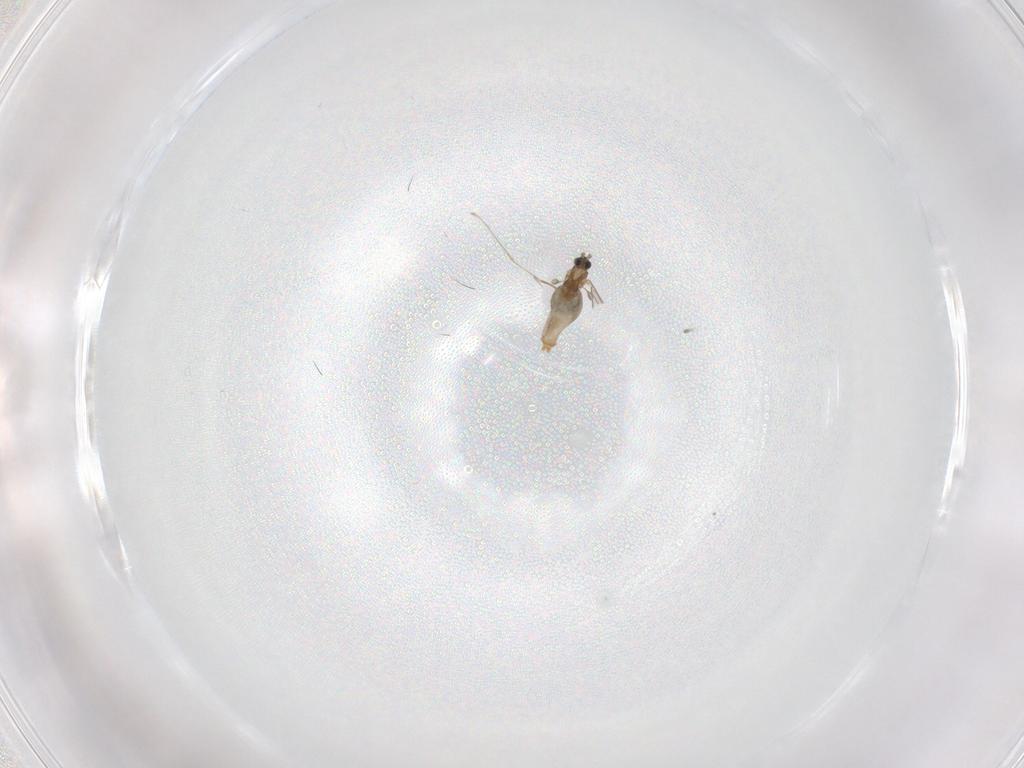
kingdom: Animalia
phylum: Arthropoda
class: Insecta
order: Diptera
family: Cecidomyiidae
